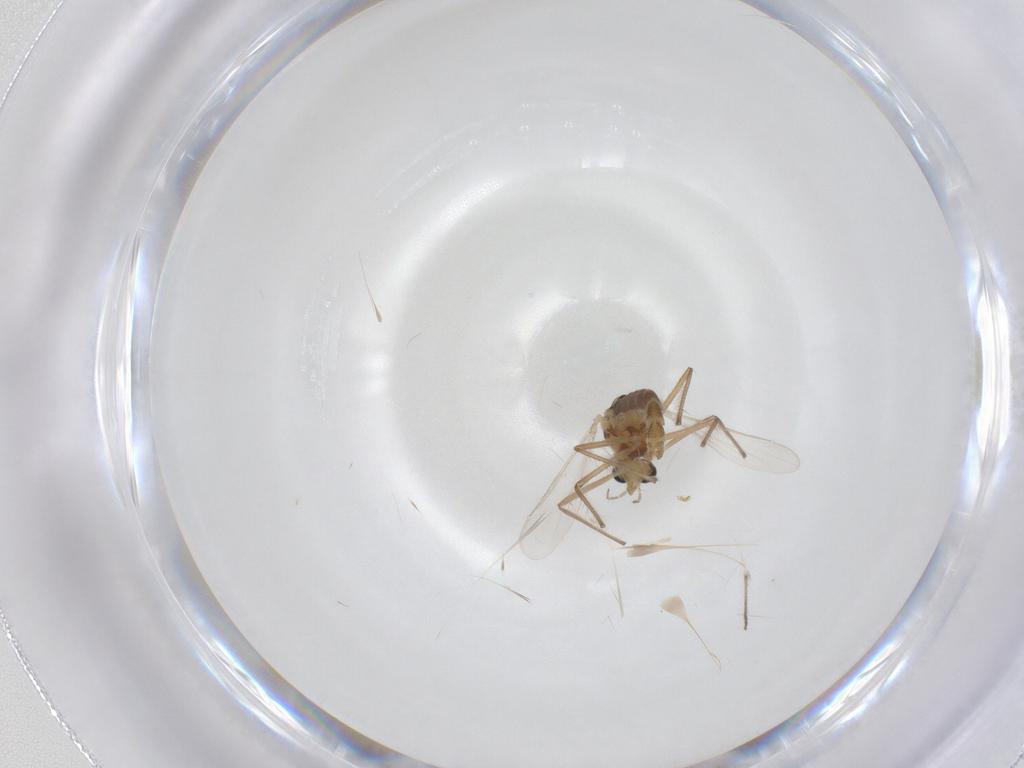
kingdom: Animalia
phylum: Arthropoda
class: Insecta
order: Diptera
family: Chironomidae
